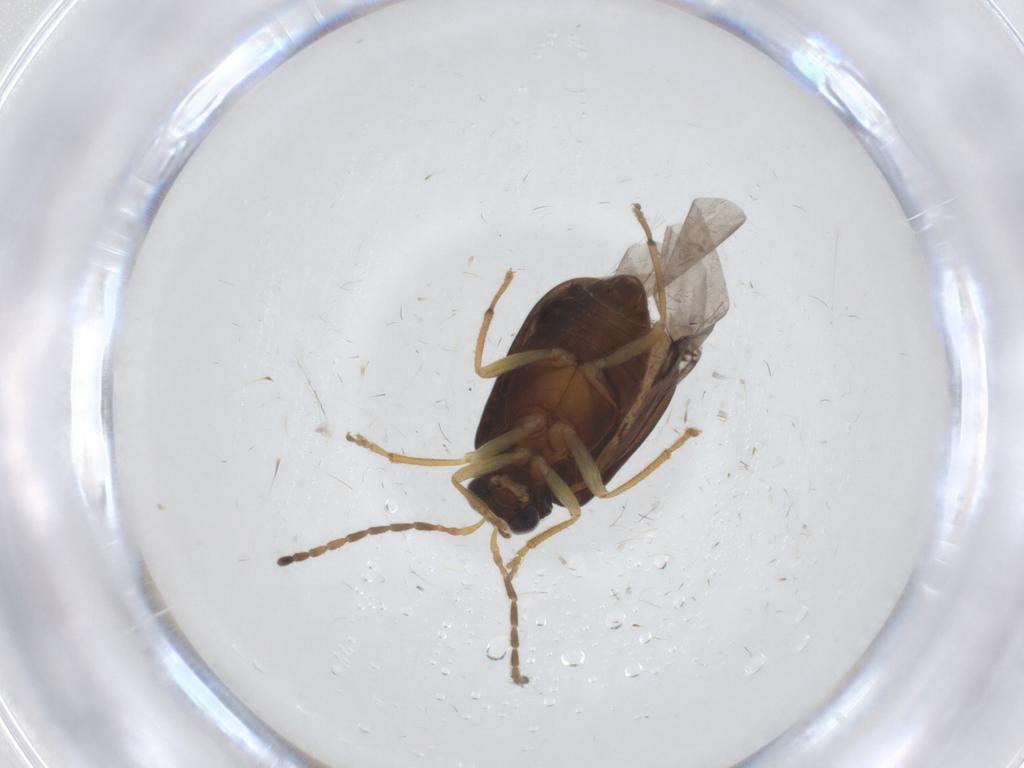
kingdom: Animalia
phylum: Arthropoda
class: Insecta
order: Coleoptera
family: Chrysomelidae
